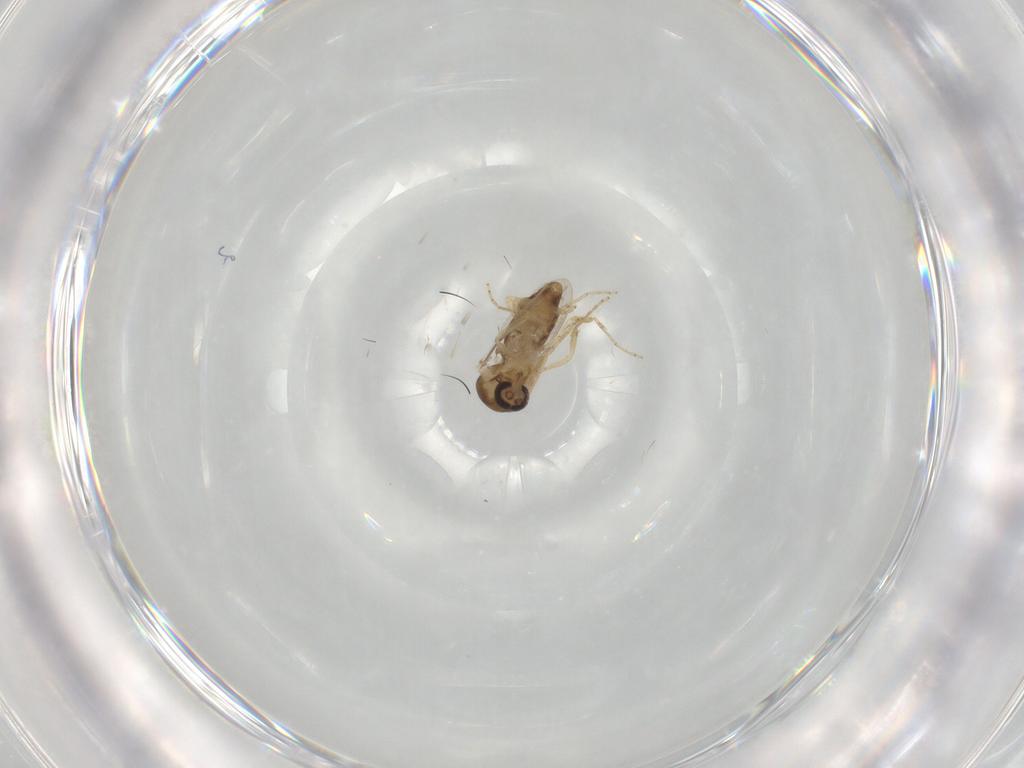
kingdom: Animalia
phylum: Arthropoda
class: Insecta
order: Diptera
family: Ceratopogonidae
